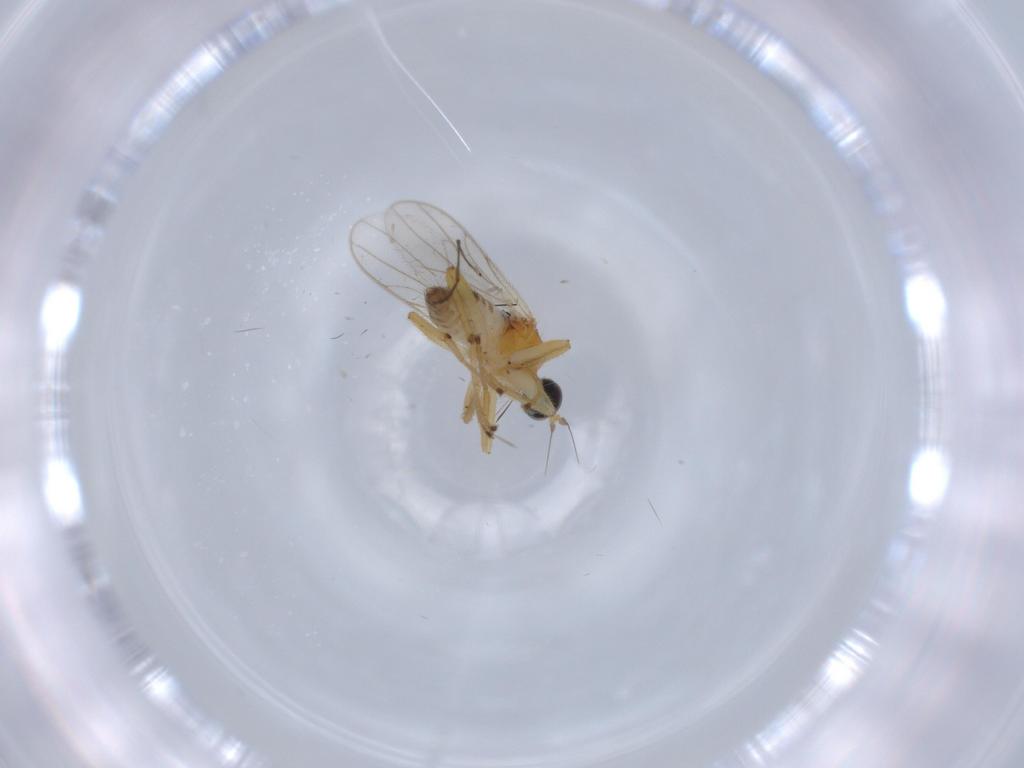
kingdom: Animalia
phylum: Arthropoda
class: Insecta
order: Diptera
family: Hybotidae
